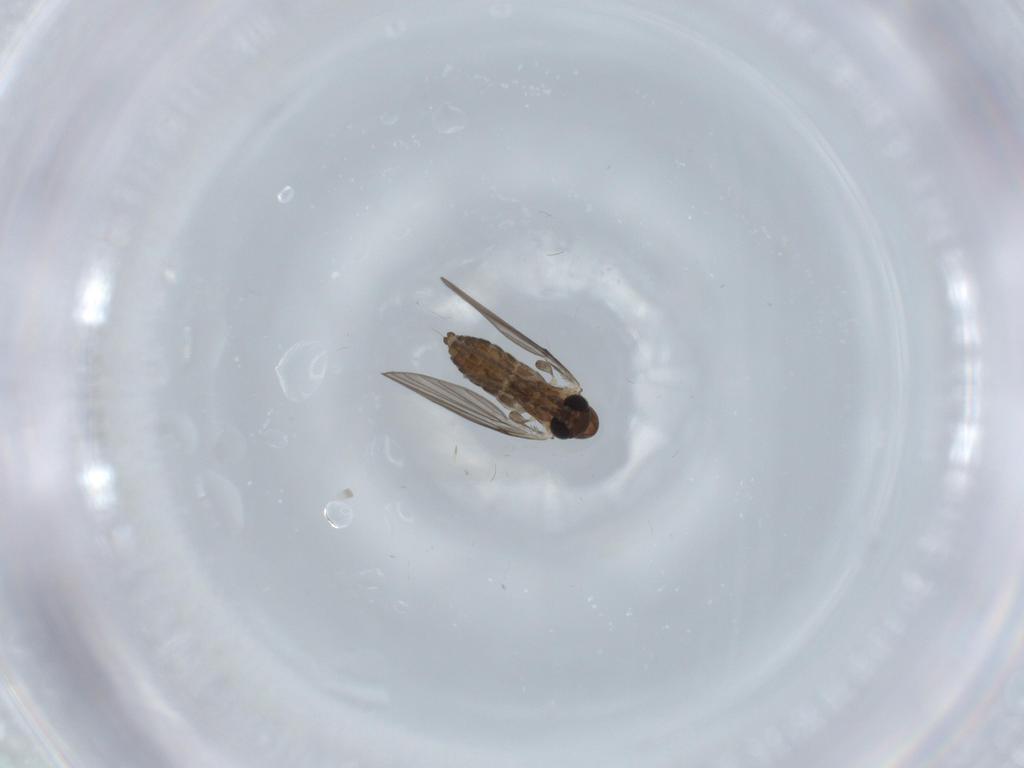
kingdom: Animalia
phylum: Arthropoda
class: Insecta
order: Diptera
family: Psychodidae
